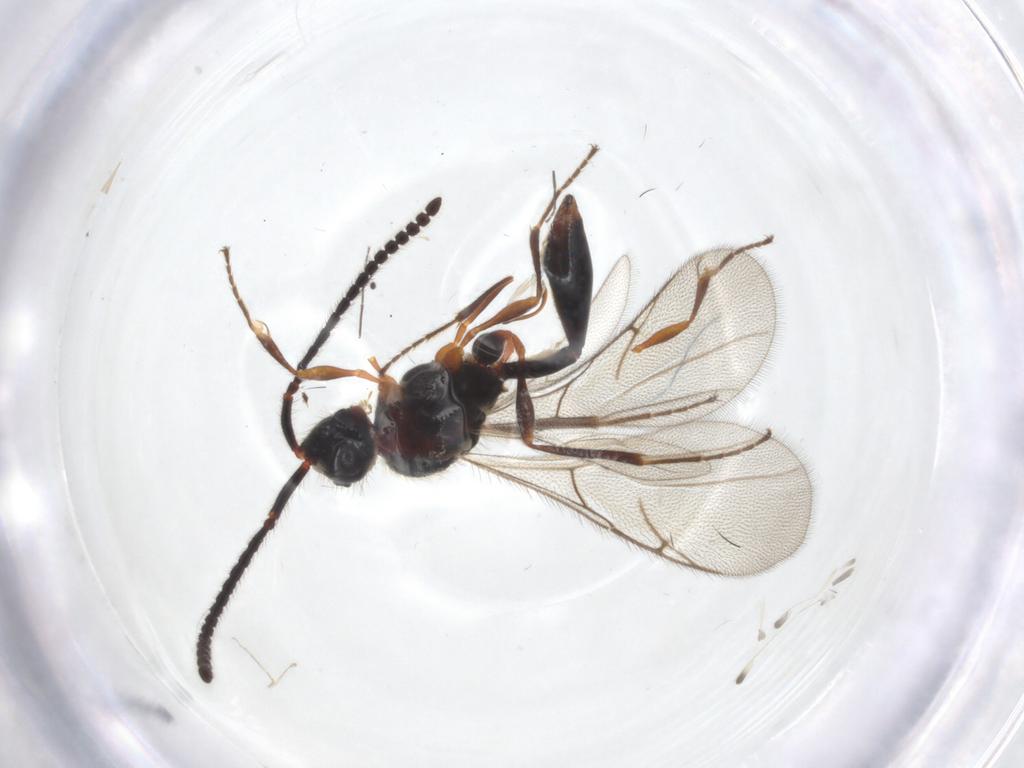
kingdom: Animalia
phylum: Arthropoda
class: Insecta
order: Hymenoptera
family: Diapriidae
